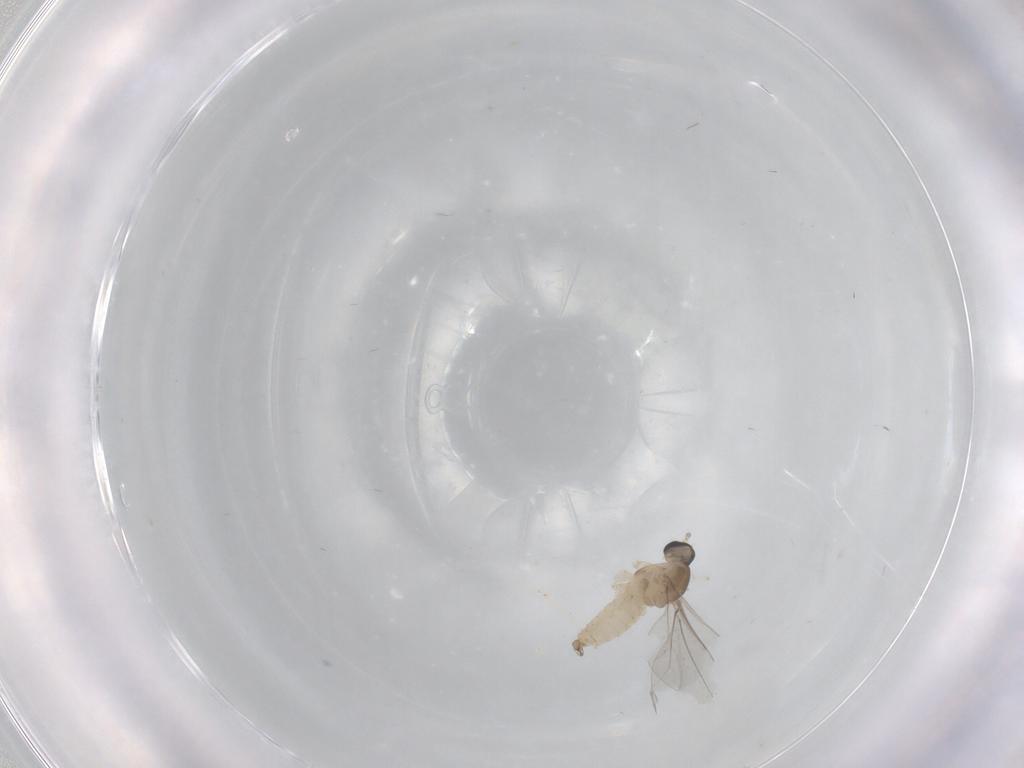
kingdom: Animalia
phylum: Arthropoda
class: Insecta
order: Diptera
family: Cecidomyiidae
